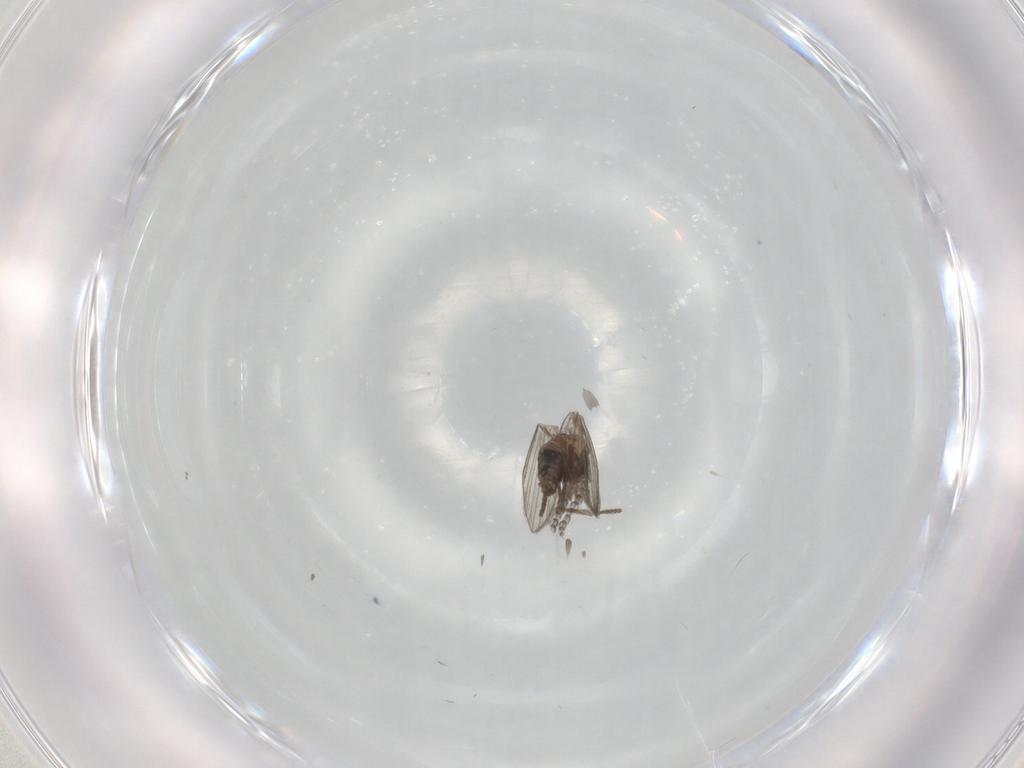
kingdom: Animalia
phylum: Arthropoda
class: Insecta
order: Diptera
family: Psychodidae
